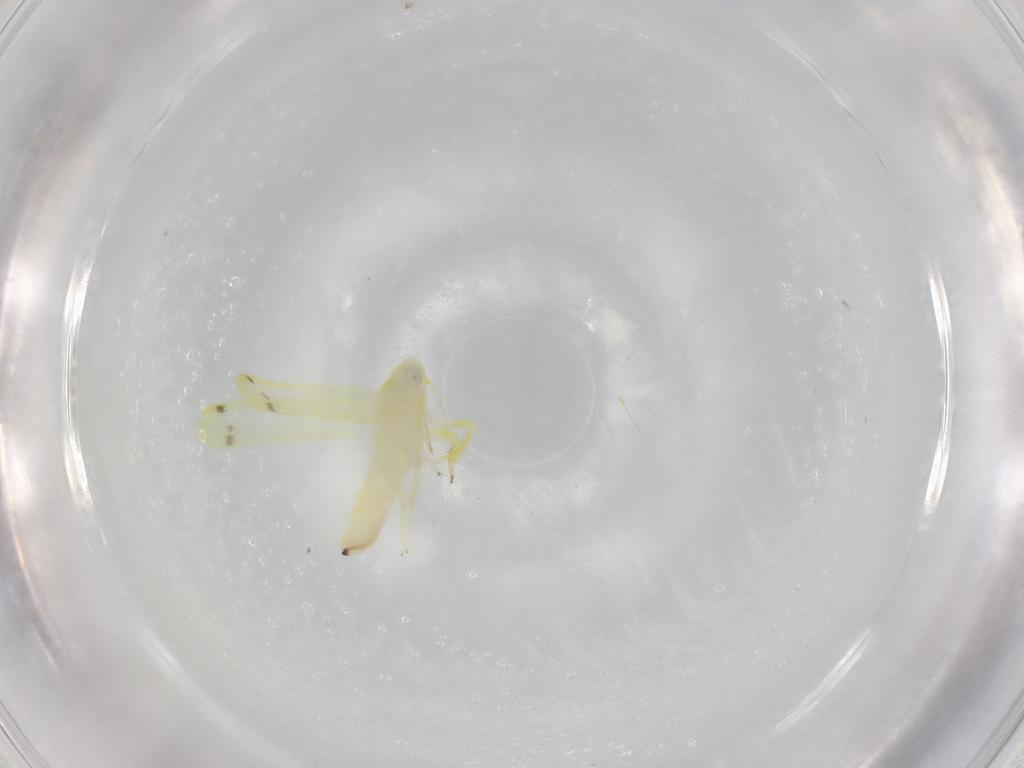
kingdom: Animalia
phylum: Arthropoda
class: Insecta
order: Hemiptera
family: Cicadellidae
